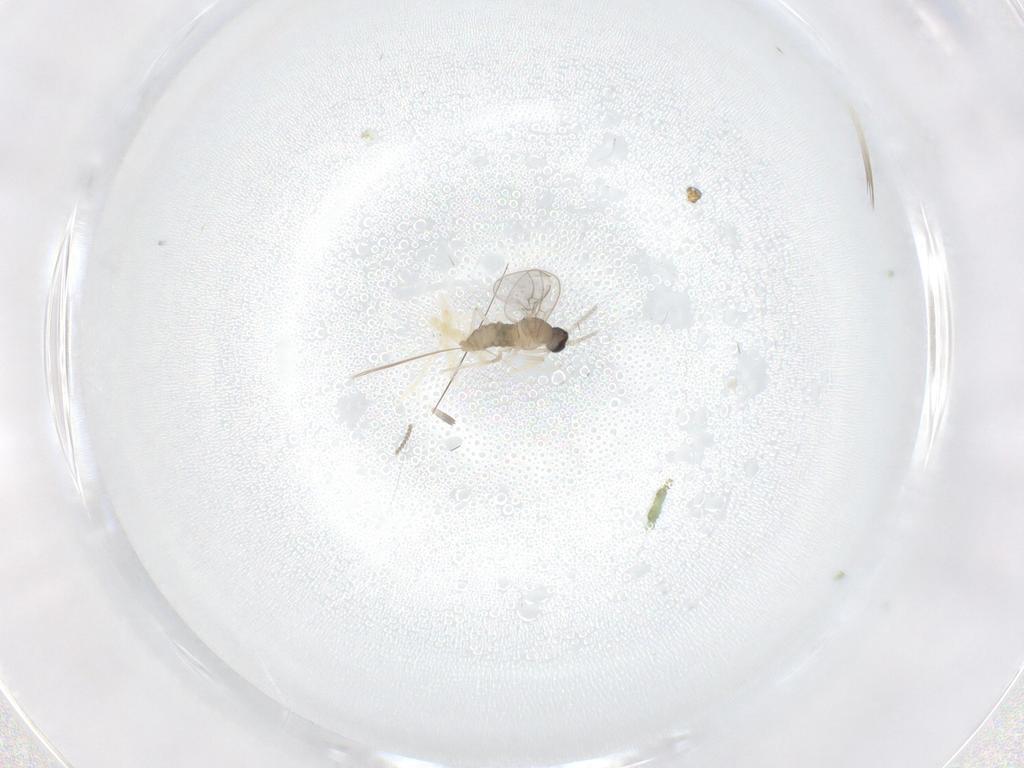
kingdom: Animalia
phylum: Arthropoda
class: Insecta
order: Diptera
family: Cecidomyiidae
